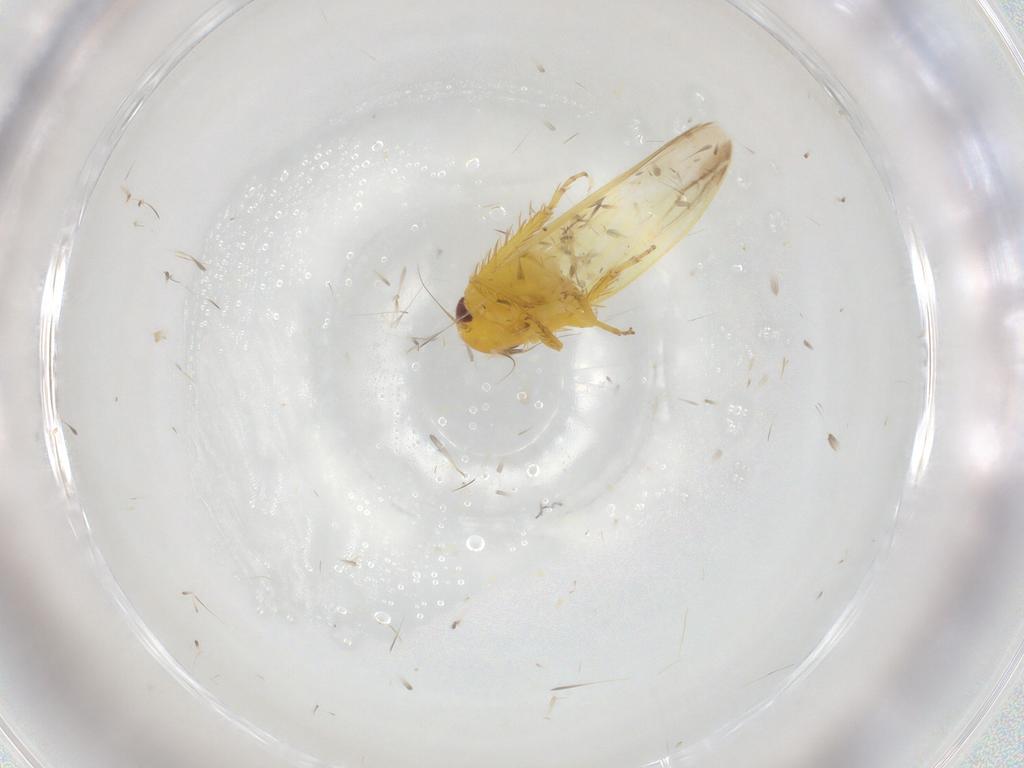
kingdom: Animalia
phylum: Arthropoda
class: Insecta
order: Hemiptera
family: Cicadellidae
